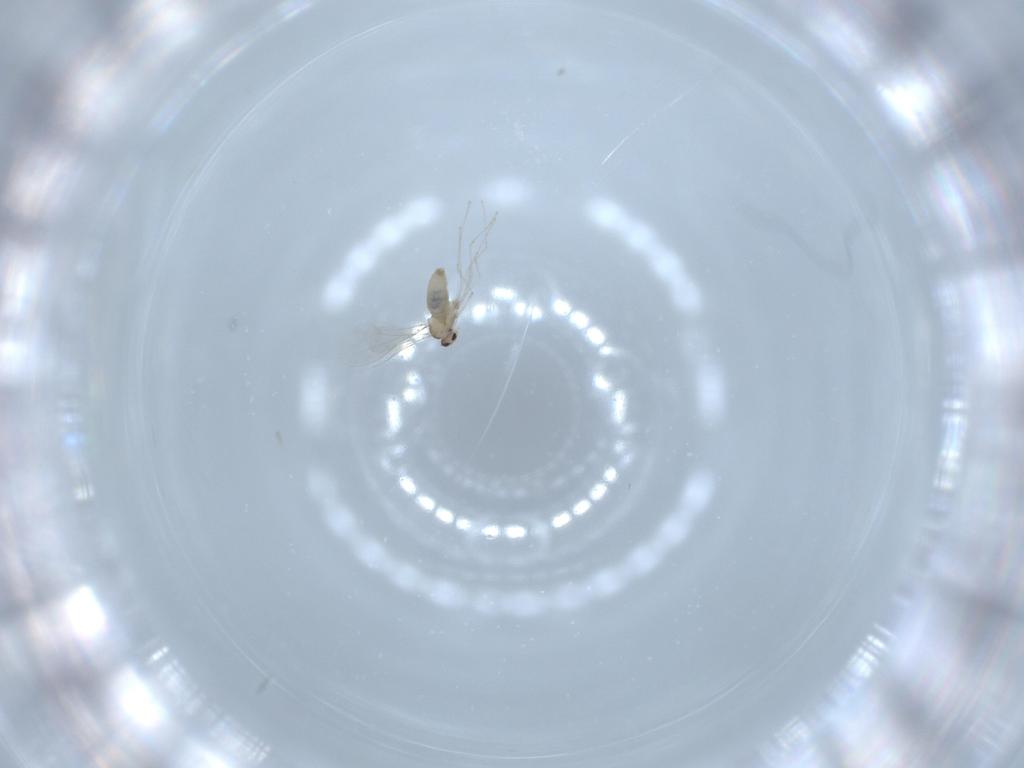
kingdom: Animalia
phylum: Arthropoda
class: Insecta
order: Diptera
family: Cecidomyiidae
